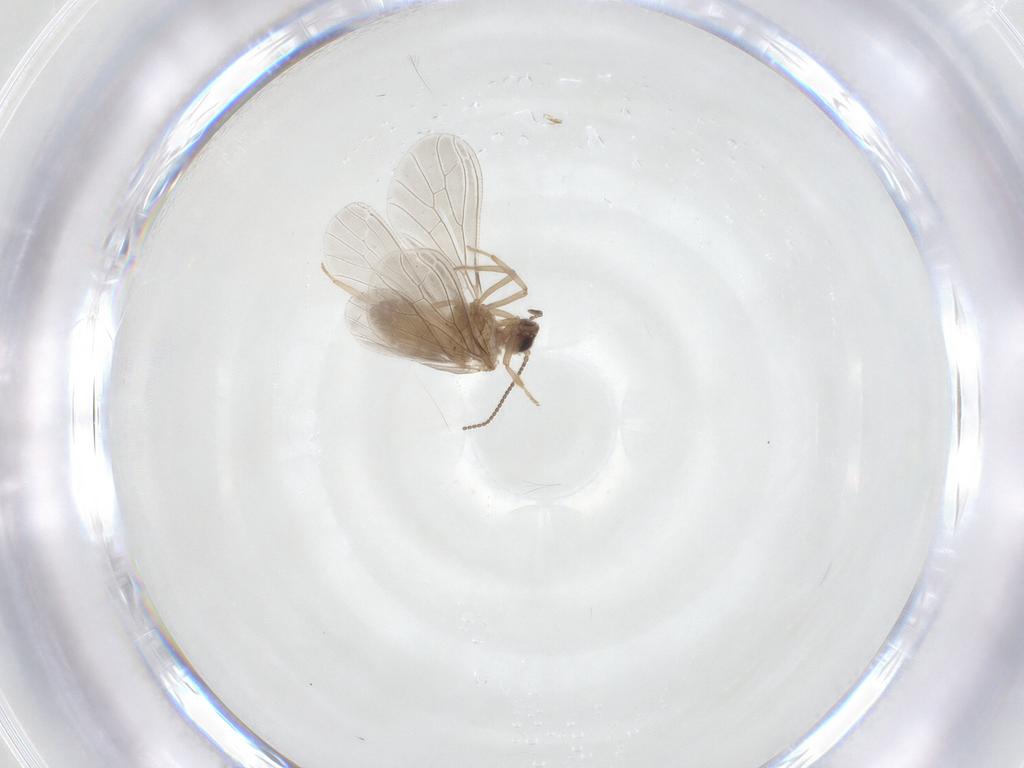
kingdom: Animalia
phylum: Arthropoda
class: Insecta
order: Neuroptera
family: Coniopterygidae
